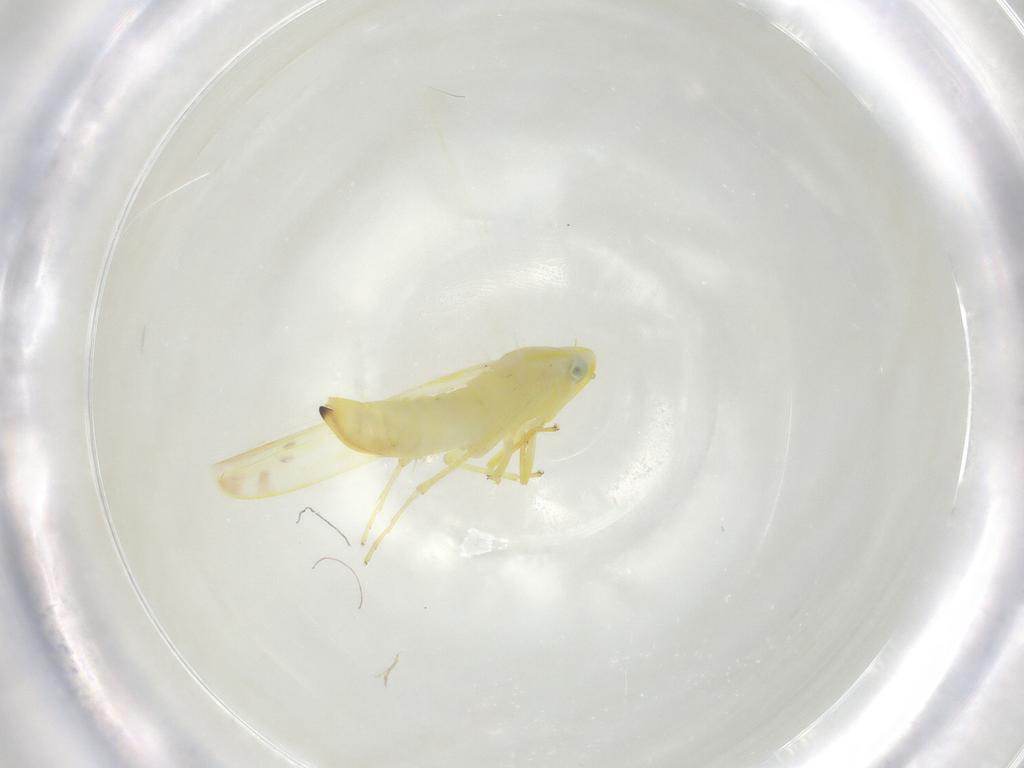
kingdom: Animalia
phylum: Arthropoda
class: Insecta
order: Hemiptera
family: Cicadellidae
